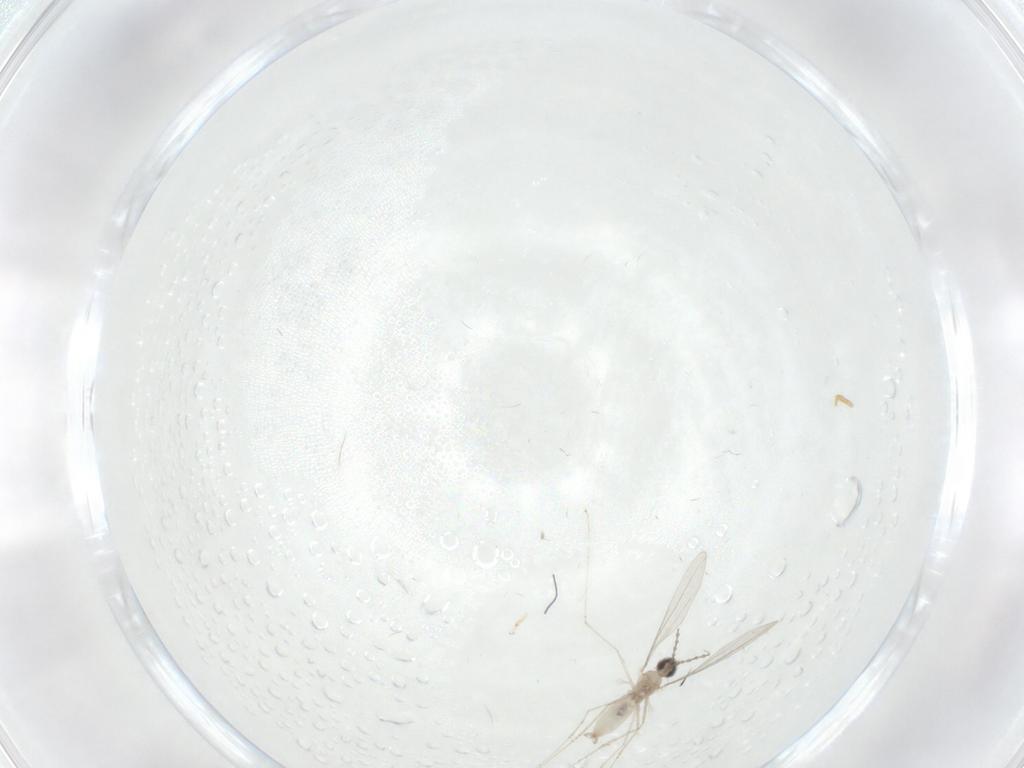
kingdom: Animalia
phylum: Arthropoda
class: Insecta
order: Diptera
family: Cecidomyiidae
